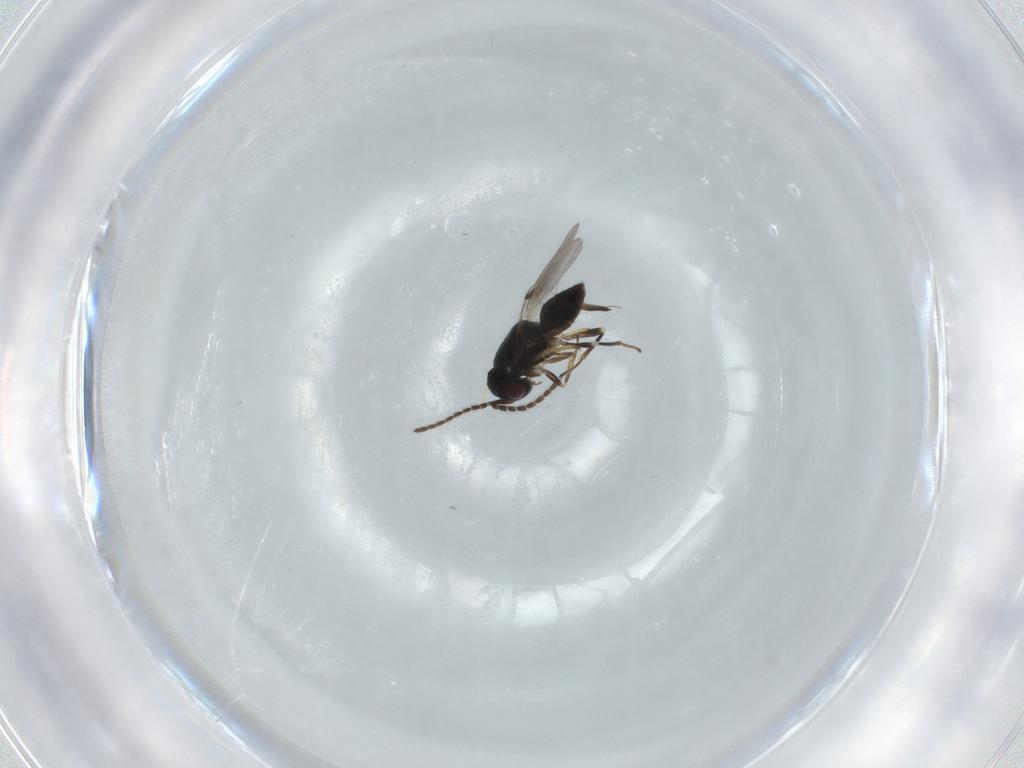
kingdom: Animalia
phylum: Arthropoda
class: Insecta
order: Hymenoptera
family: Encyrtidae
